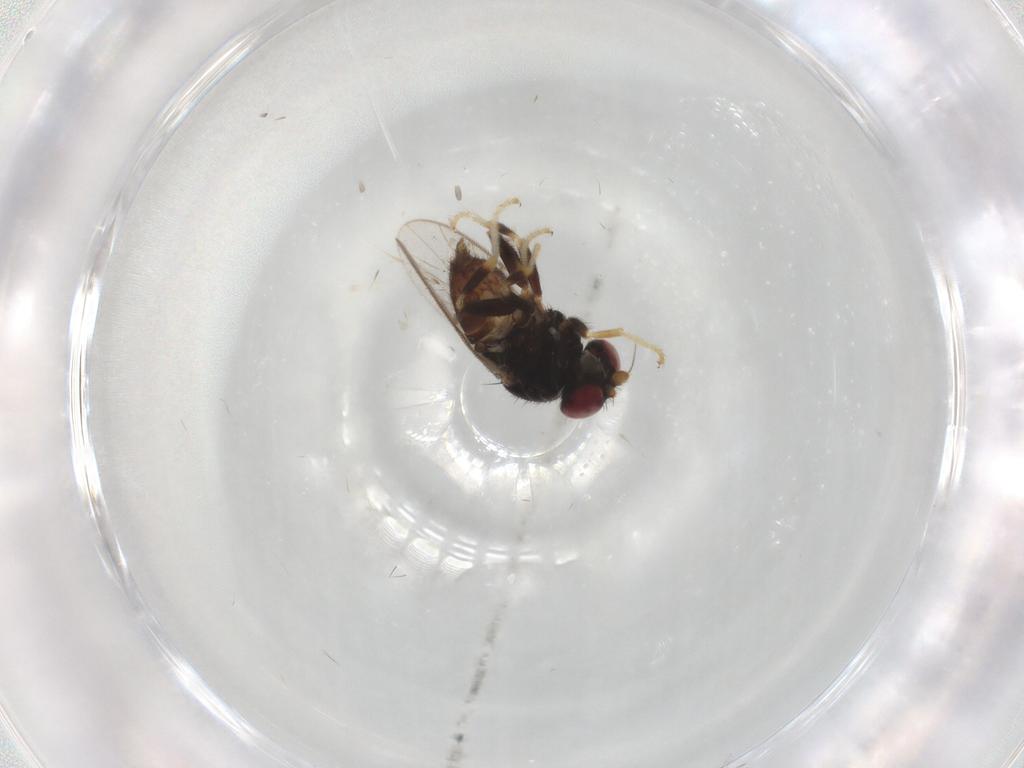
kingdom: Animalia
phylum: Arthropoda
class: Insecta
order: Diptera
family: Chloropidae
